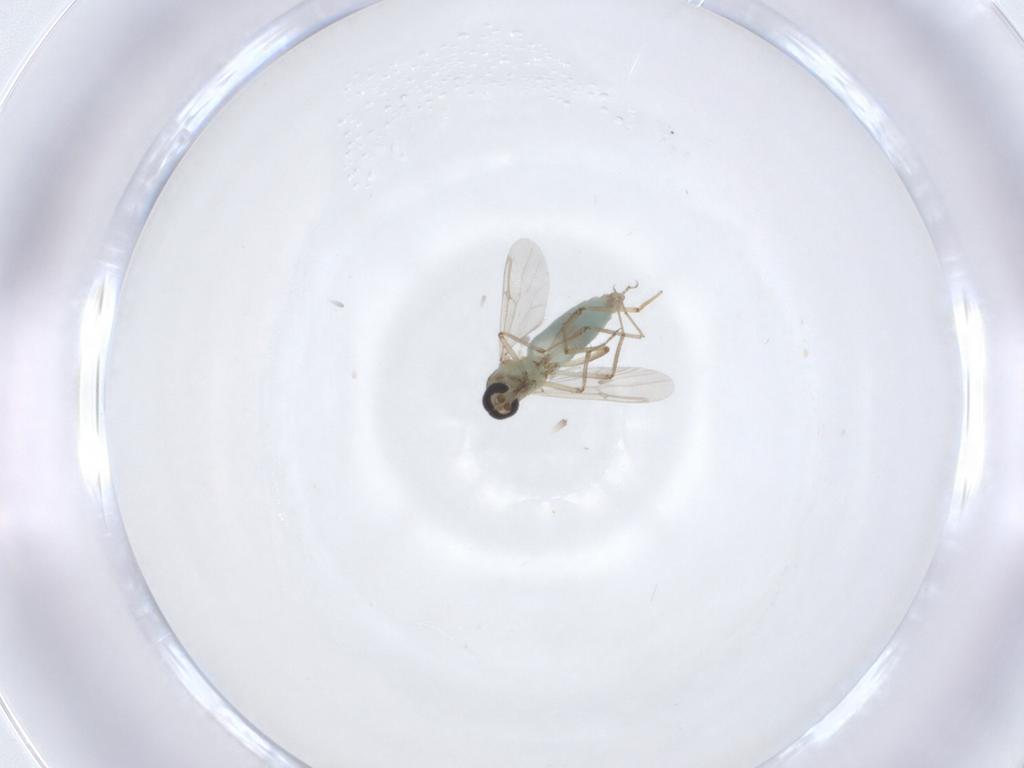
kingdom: Animalia
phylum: Arthropoda
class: Insecta
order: Diptera
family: Ceratopogonidae
